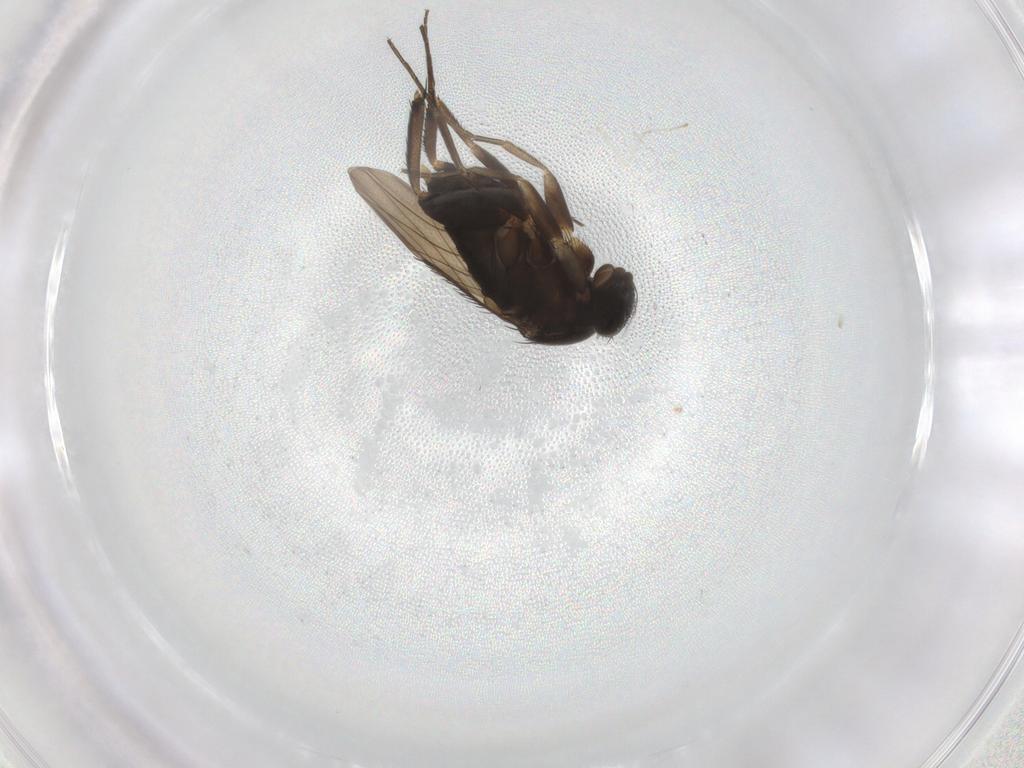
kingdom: Animalia
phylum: Arthropoda
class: Insecta
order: Diptera
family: Phoridae
